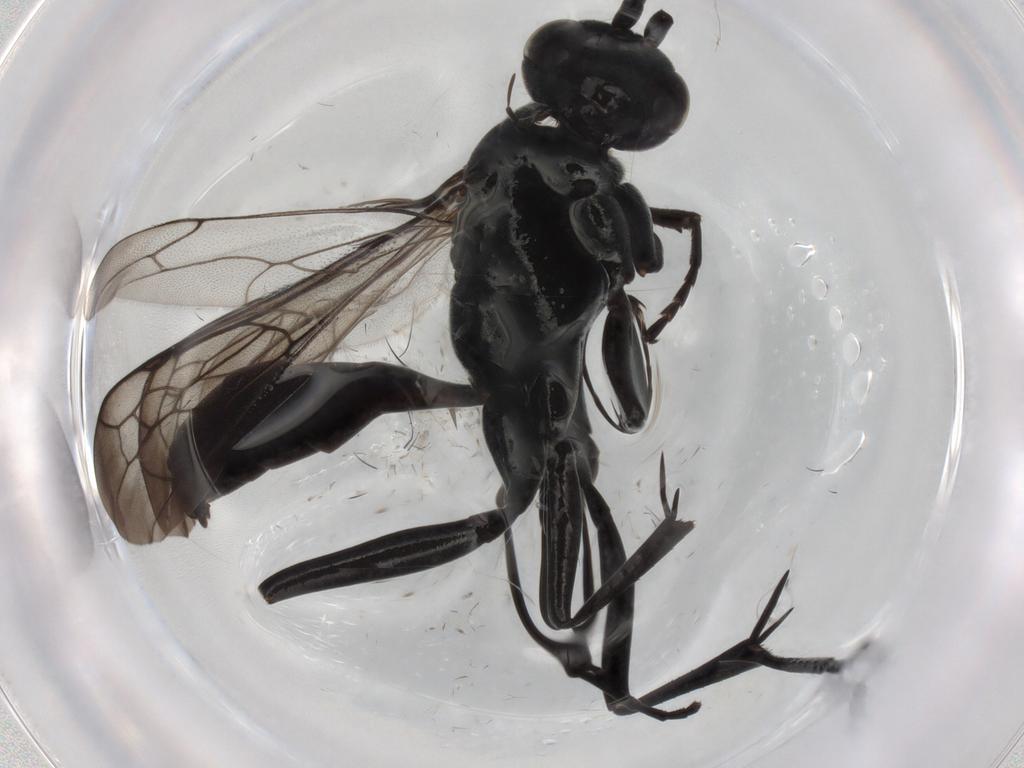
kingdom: Animalia
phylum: Arthropoda
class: Insecta
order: Hymenoptera
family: Pompilidae
